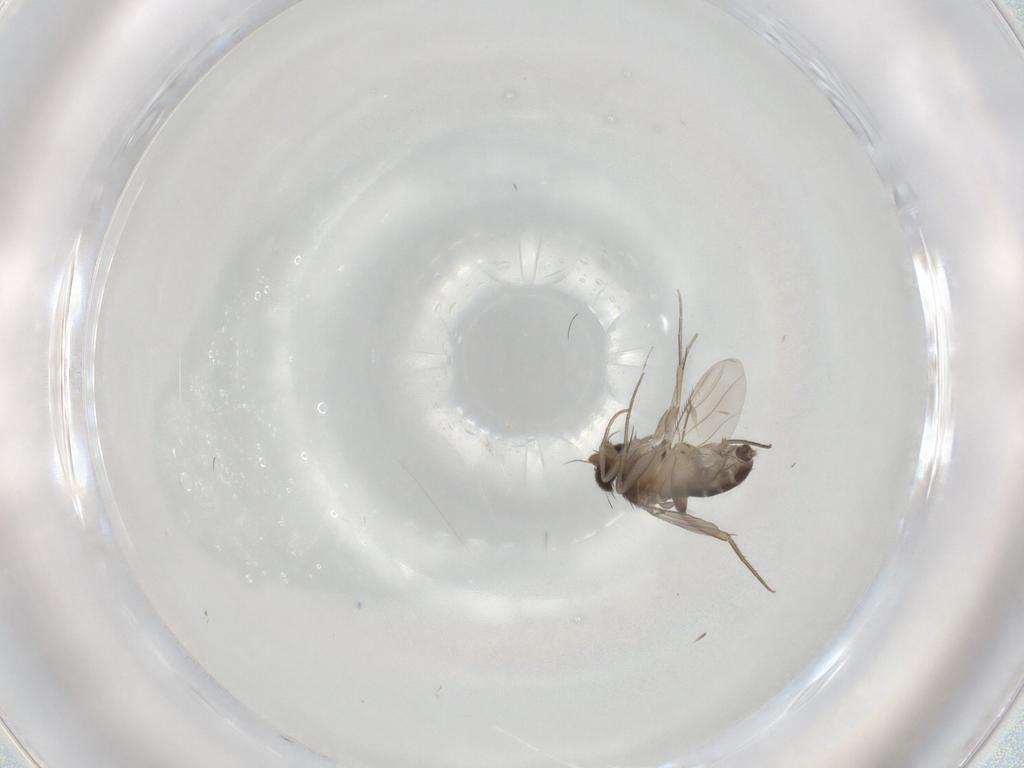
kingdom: Animalia
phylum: Arthropoda
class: Insecta
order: Diptera
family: Phoridae
